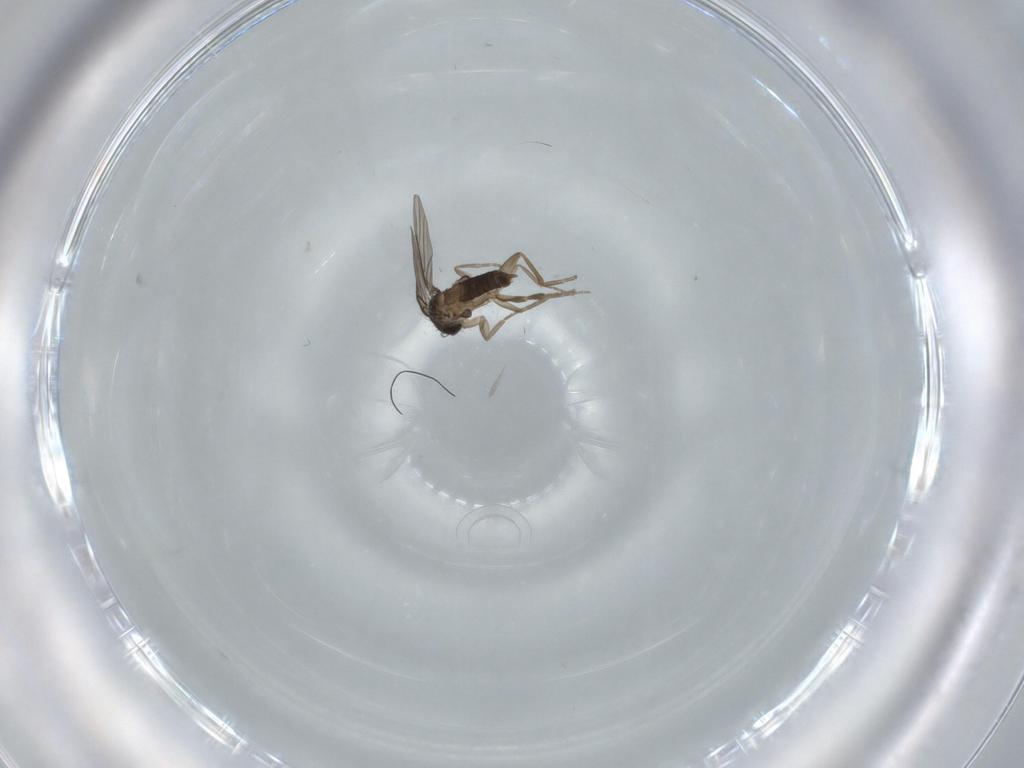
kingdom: Animalia
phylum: Arthropoda
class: Insecta
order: Diptera
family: Phoridae
